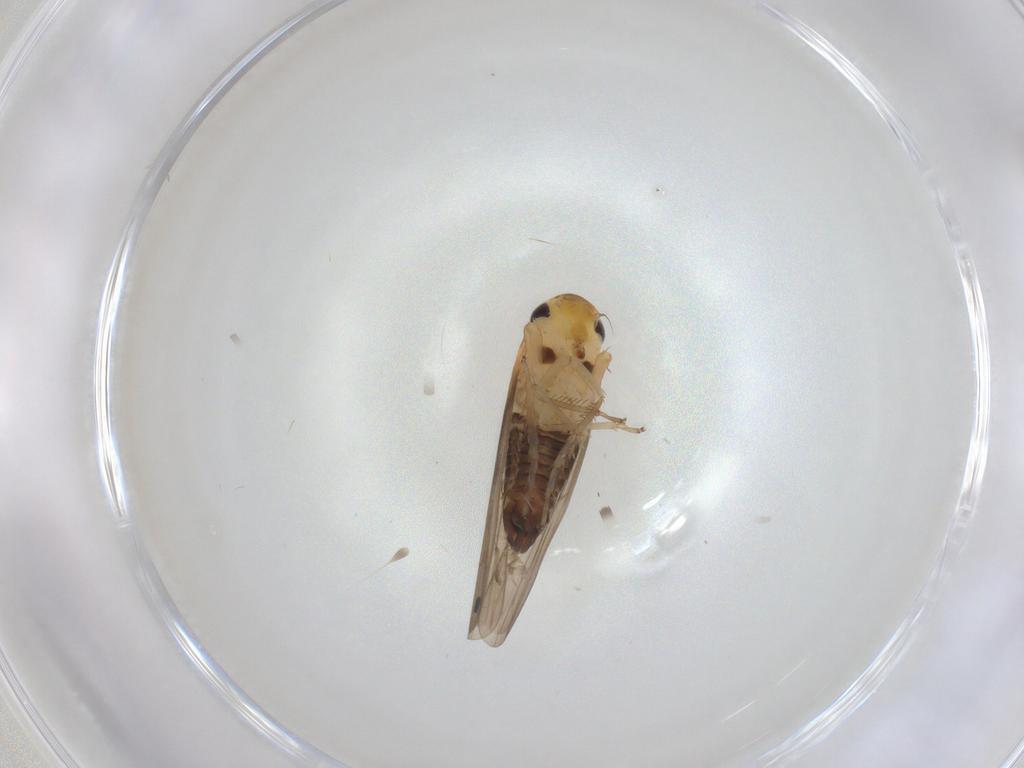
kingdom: Animalia
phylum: Arthropoda
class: Insecta
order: Hemiptera
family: Cicadellidae
